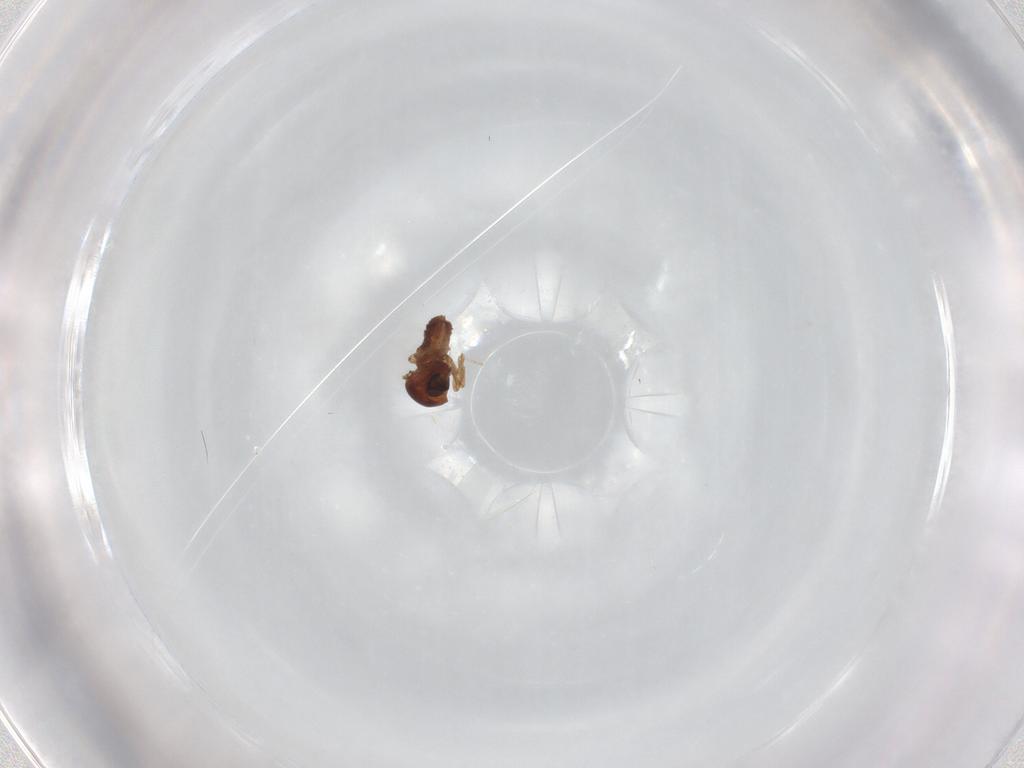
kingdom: Animalia
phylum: Arthropoda
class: Insecta
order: Diptera
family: Ceratopogonidae
